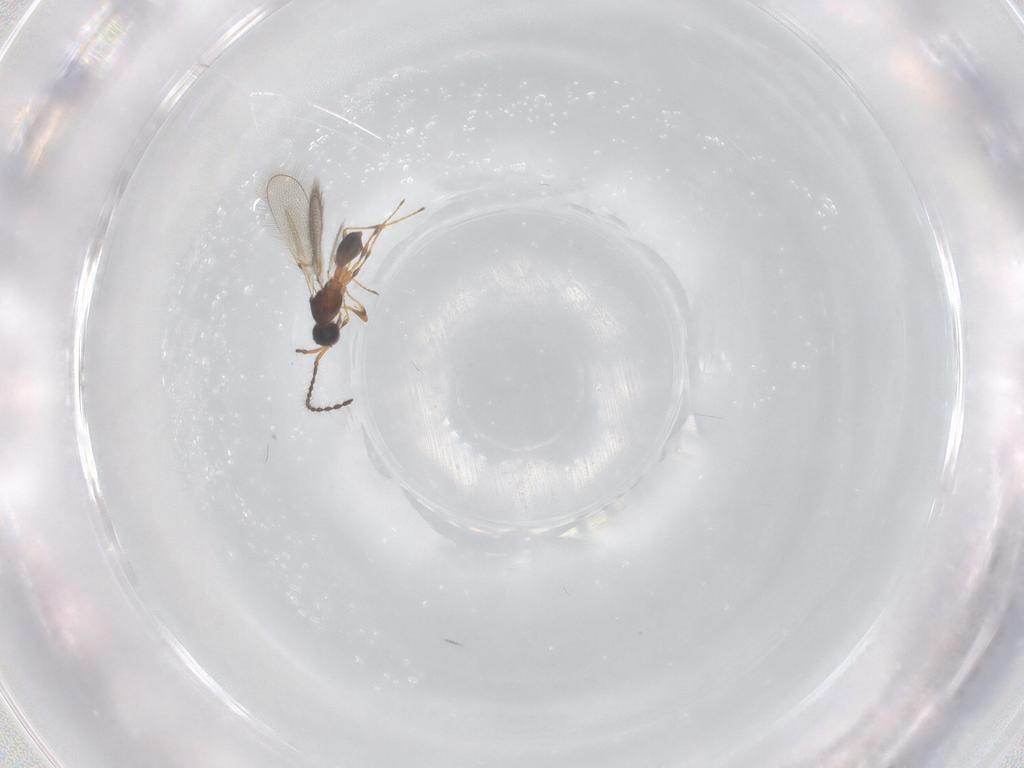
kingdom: Animalia
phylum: Arthropoda
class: Insecta
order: Hymenoptera
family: Diapriidae
